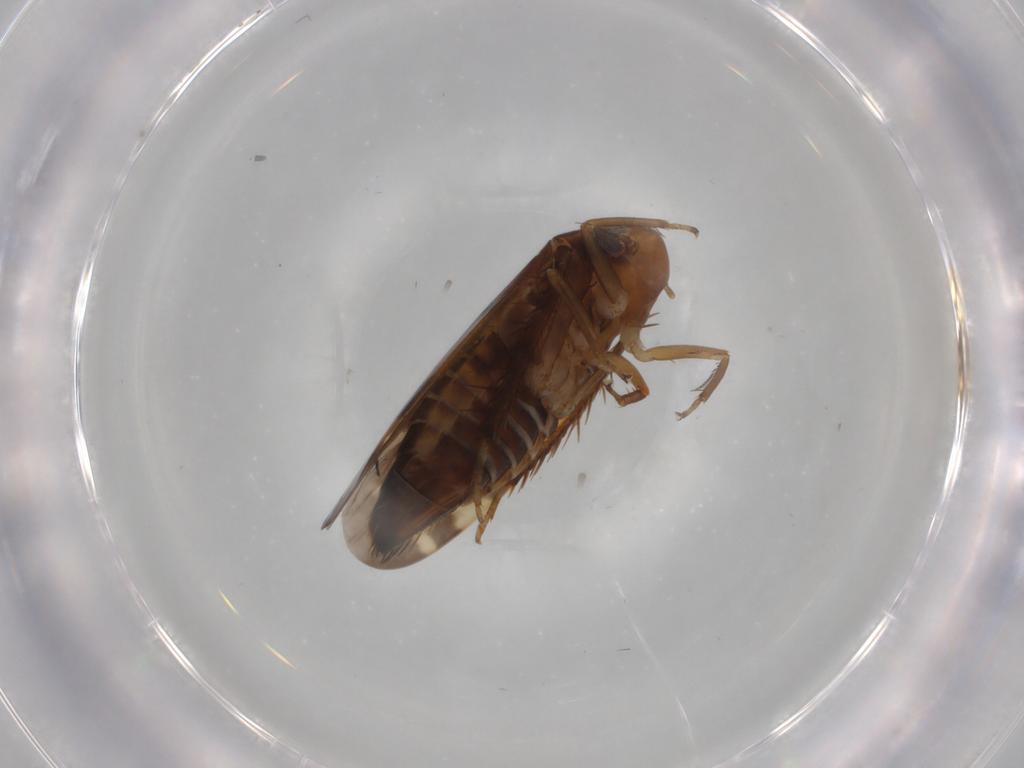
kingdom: Animalia
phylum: Arthropoda
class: Insecta
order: Hemiptera
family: Cicadellidae
